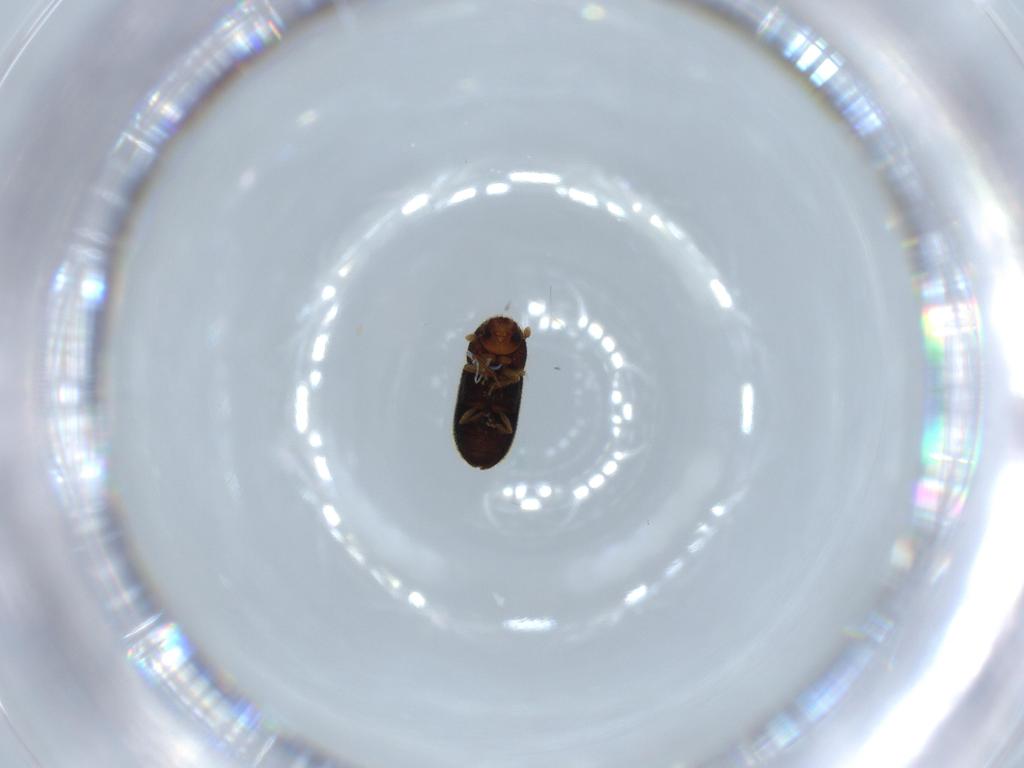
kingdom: Animalia
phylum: Arthropoda
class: Insecta
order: Coleoptera
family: Curculionidae
